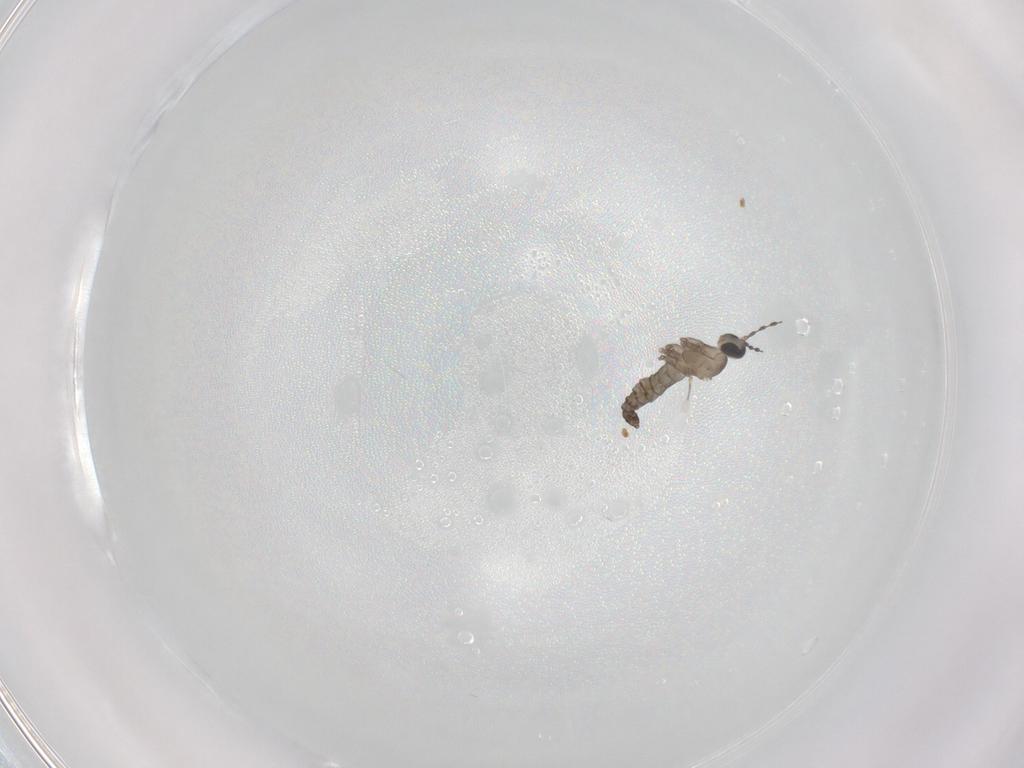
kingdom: Animalia
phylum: Arthropoda
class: Insecta
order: Diptera
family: Cecidomyiidae
